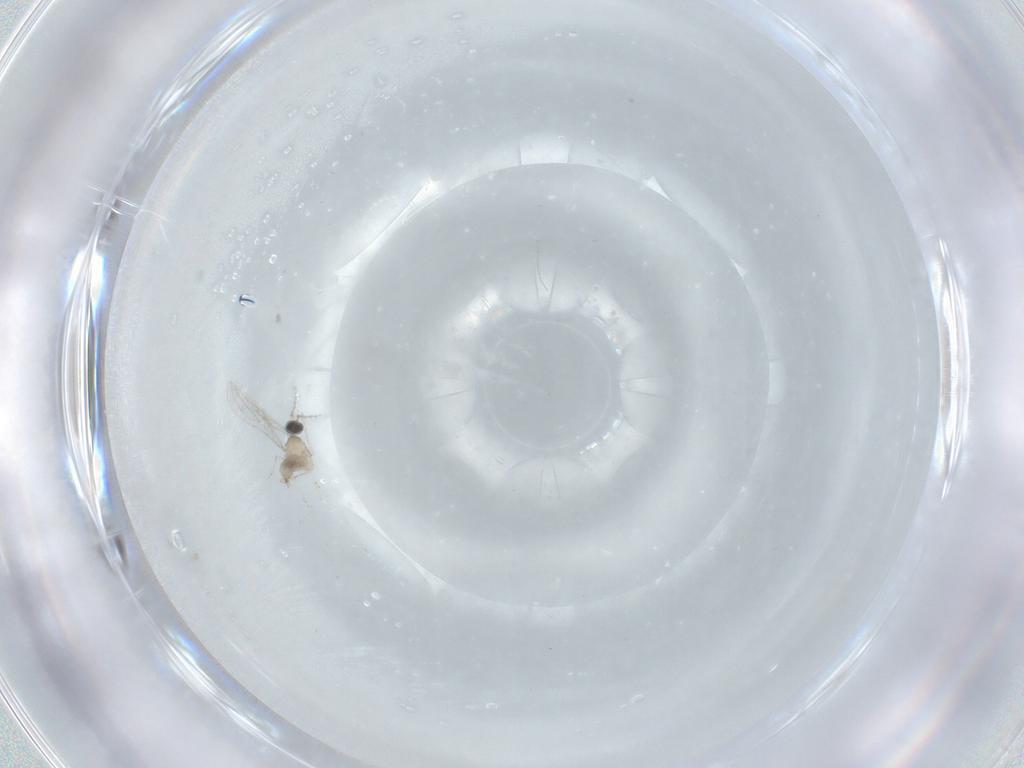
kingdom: Animalia
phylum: Arthropoda
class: Insecta
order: Diptera
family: Cecidomyiidae
